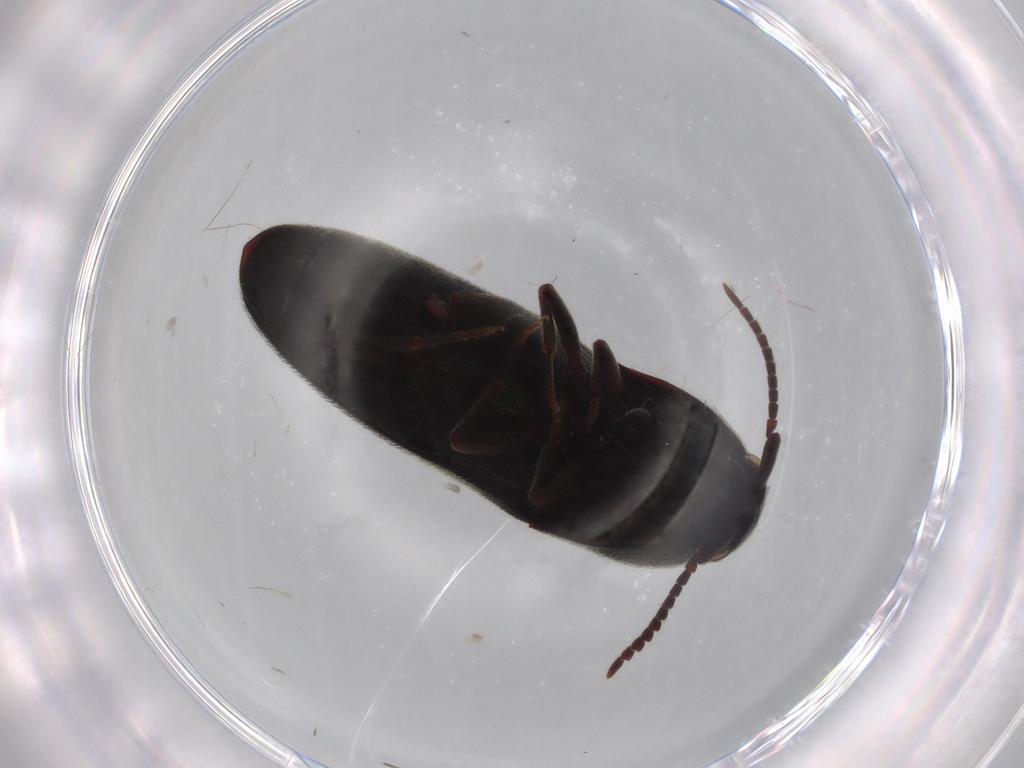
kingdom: Animalia
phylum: Arthropoda
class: Insecta
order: Coleoptera
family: Eucnemidae
